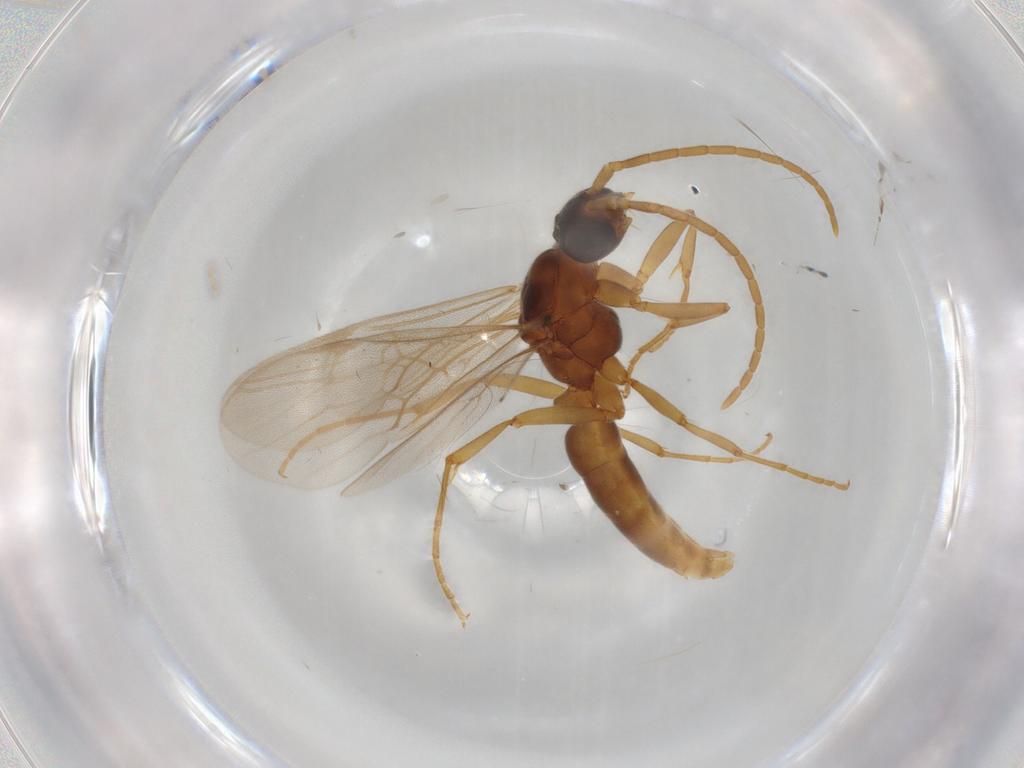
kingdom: Animalia
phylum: Arthropoda
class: Insecta
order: Hymenoptera
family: Formicidae
